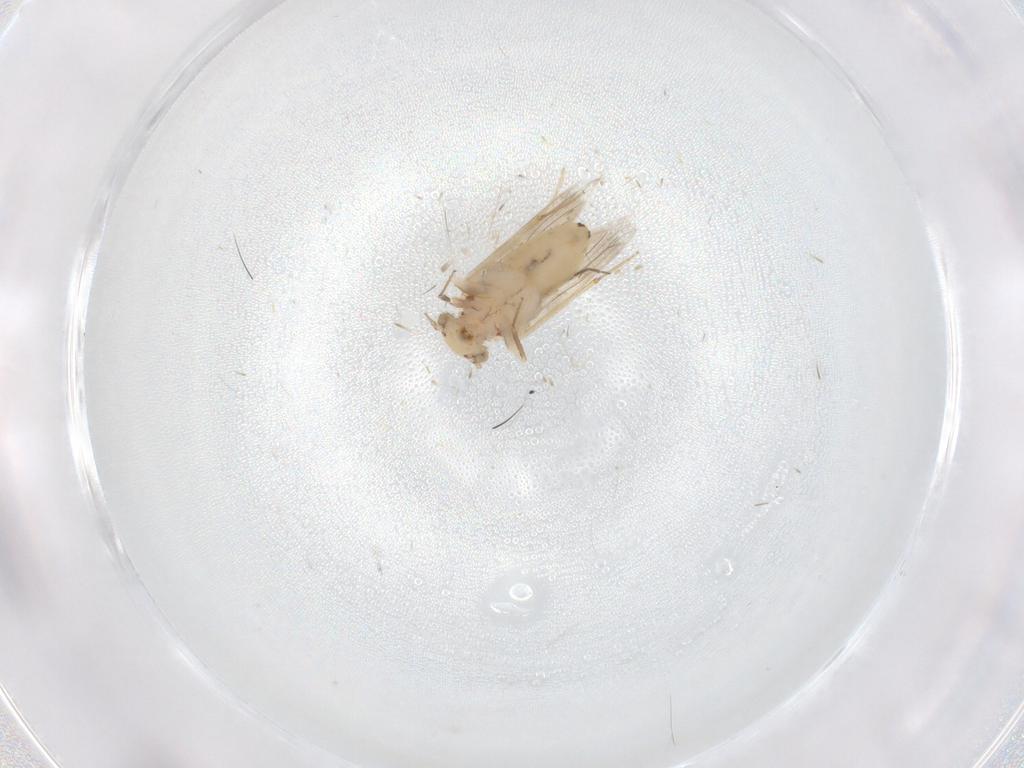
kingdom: Animalia
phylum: Arthropoda
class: Insecta
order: Psocodea
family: Lepidopsocidae
